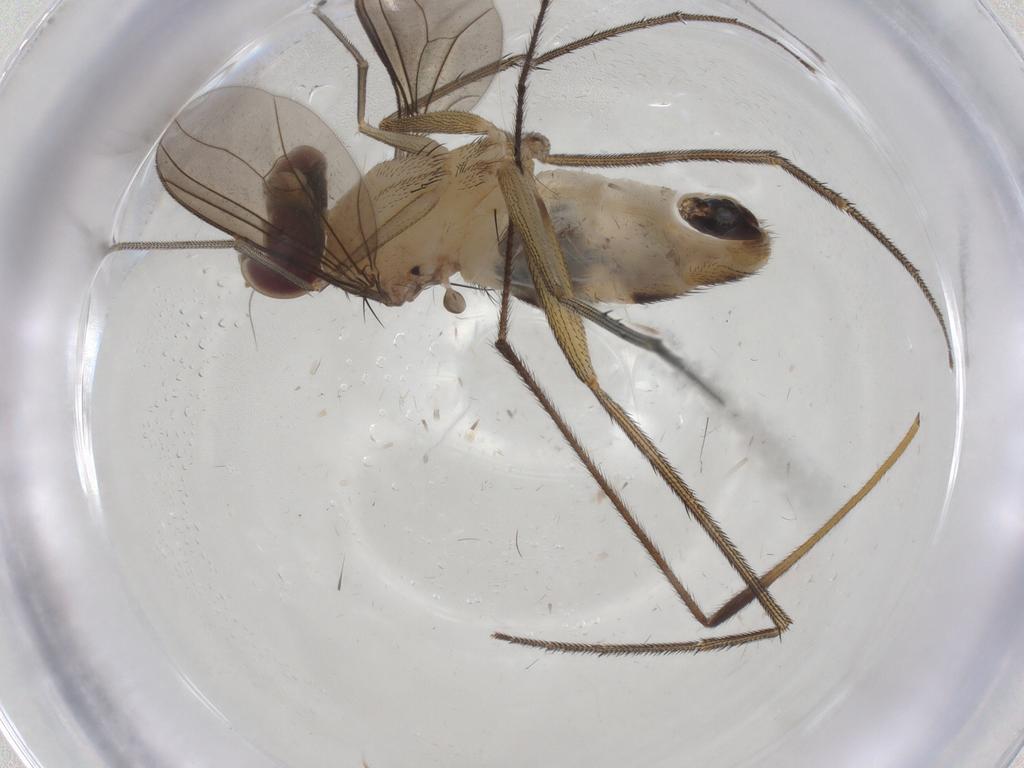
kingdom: Animalia
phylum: Arthropoda
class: Insecta
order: Diptera
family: Dolichopodidae
